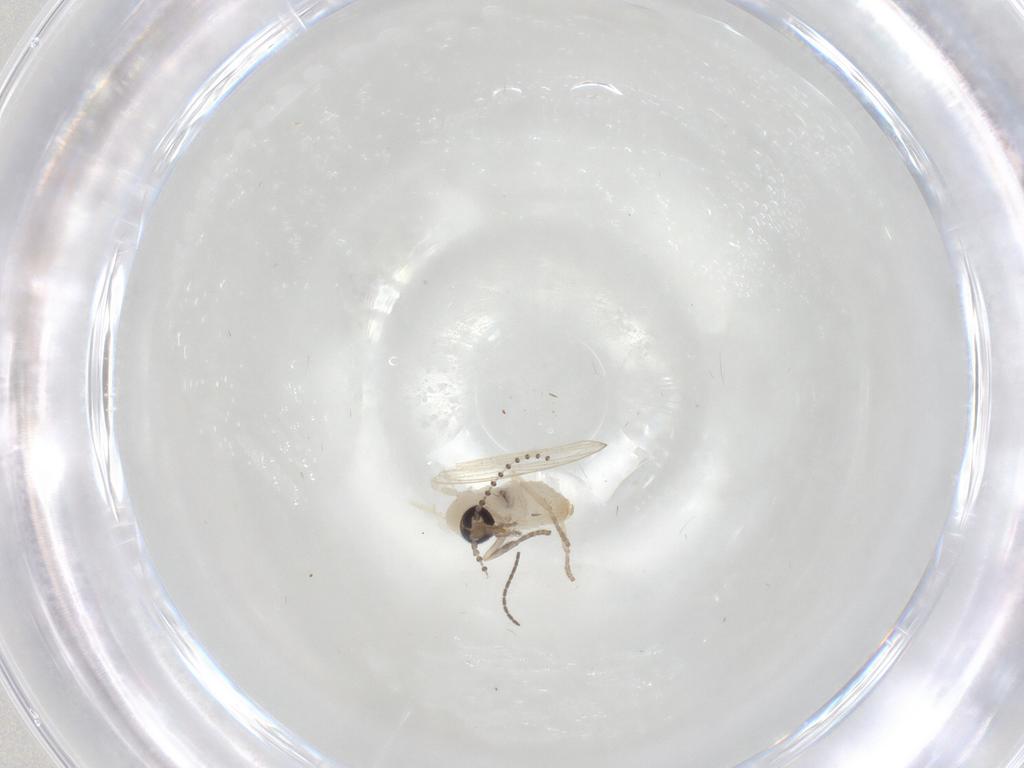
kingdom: Animalia
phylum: Arthropoda
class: Insecta
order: Diptera
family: Psychodidae
